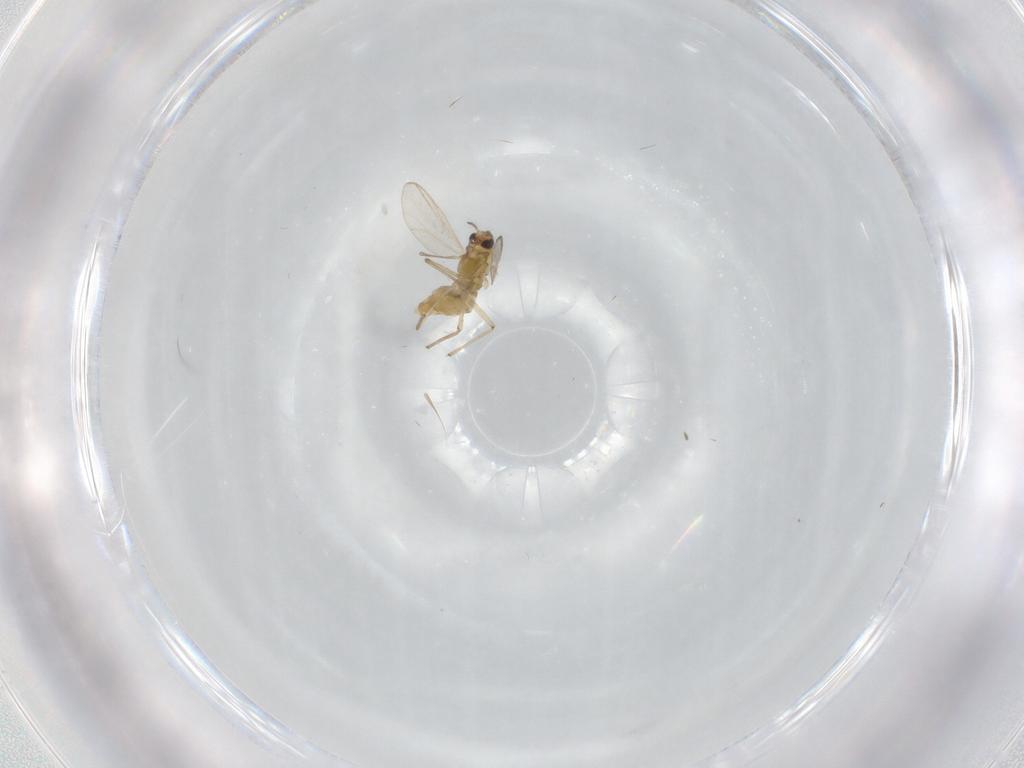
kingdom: Animalia
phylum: Arthropoda
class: Insecta
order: Diptera
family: Chironomidae
